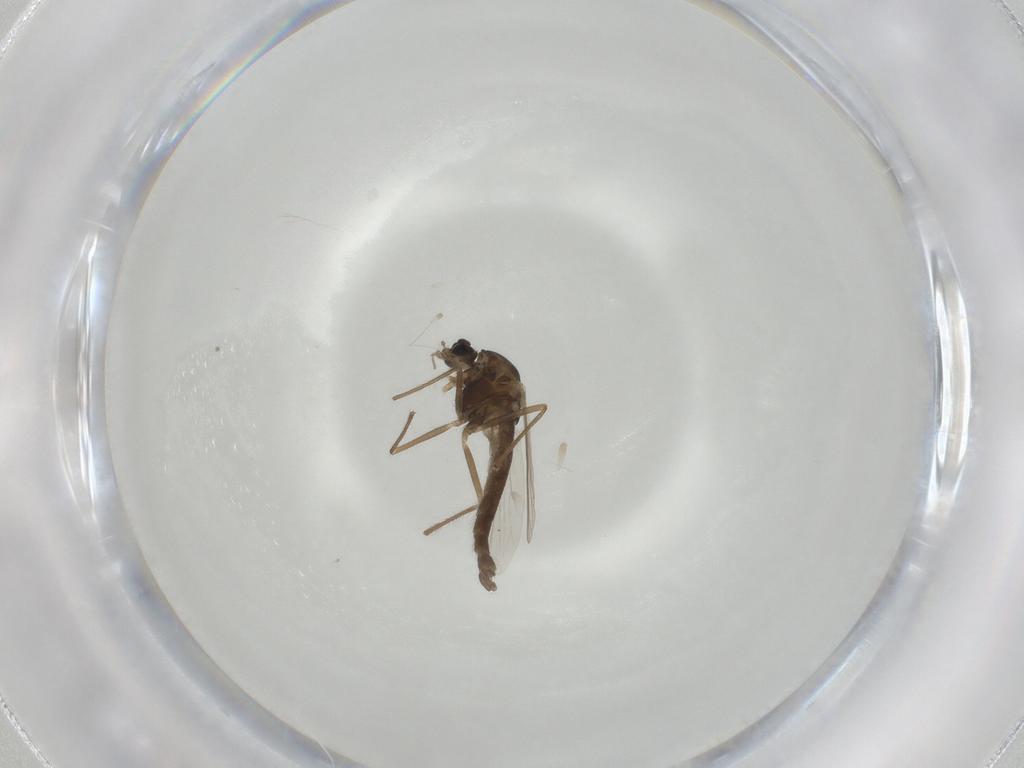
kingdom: Animalia
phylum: Arthropoda
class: Insecta
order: Diptera
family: Chironomidae
